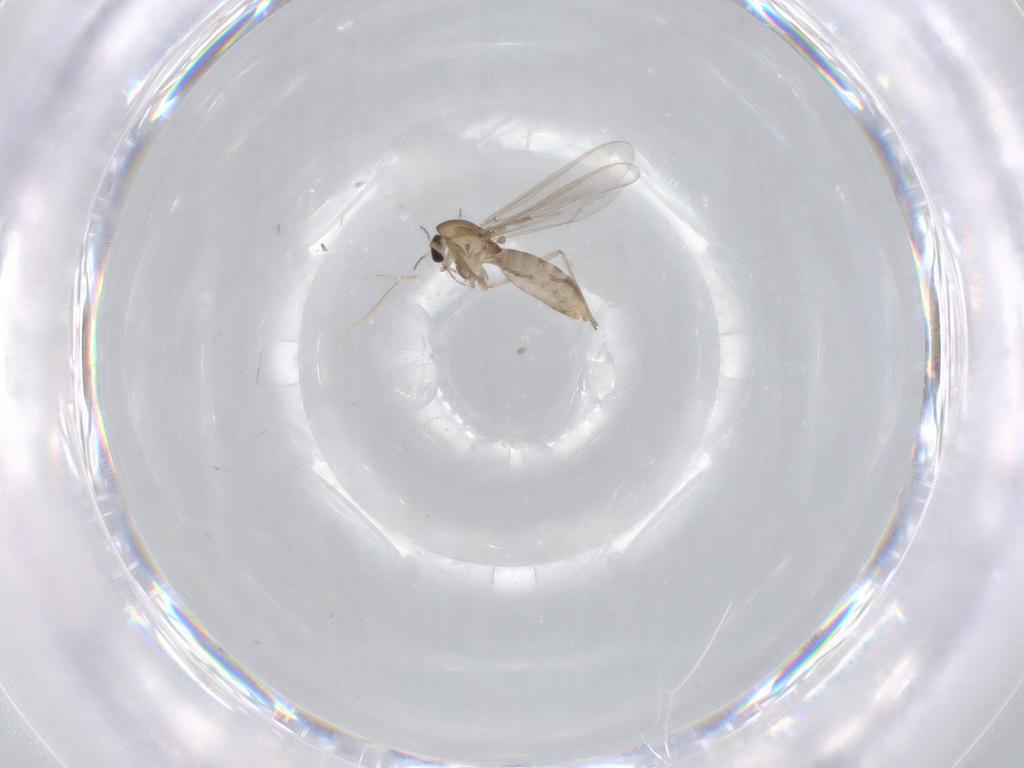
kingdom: Animalia
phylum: Arthropoda
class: Insecta
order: Diptera
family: Chironomidae
